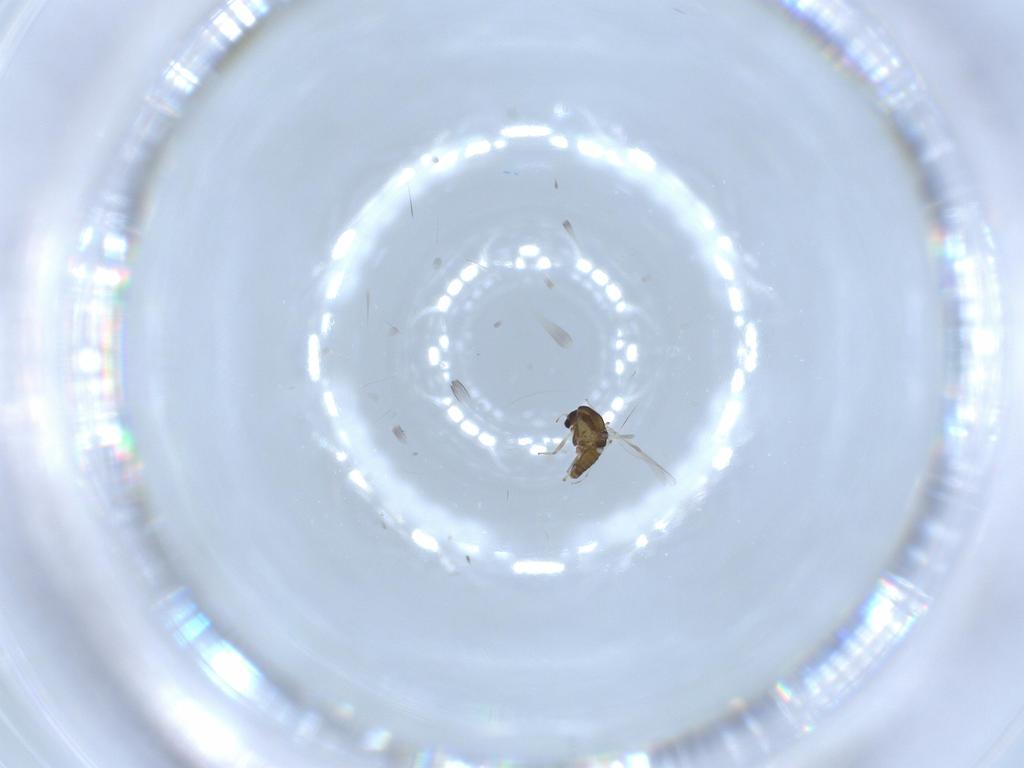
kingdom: Animalia
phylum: Arthropoda
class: Insecta
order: Diptera
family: Chironomidae
